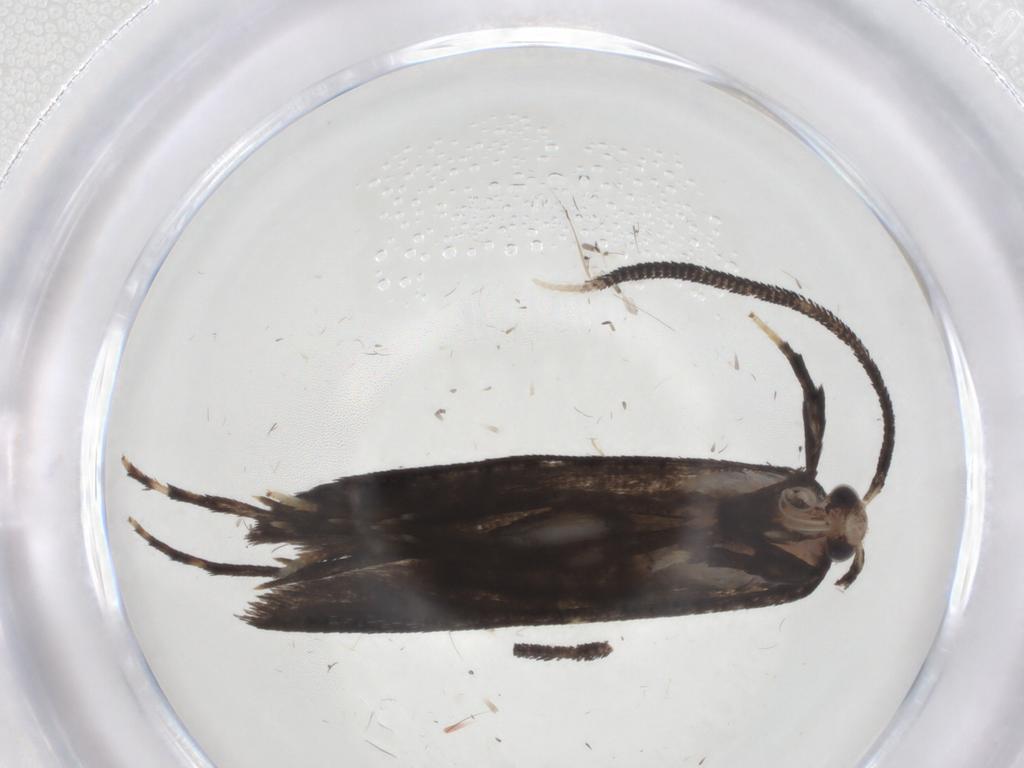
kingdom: Animalia
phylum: Arthropoda
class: Insecta
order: Lepidoptera
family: Choreutidae
